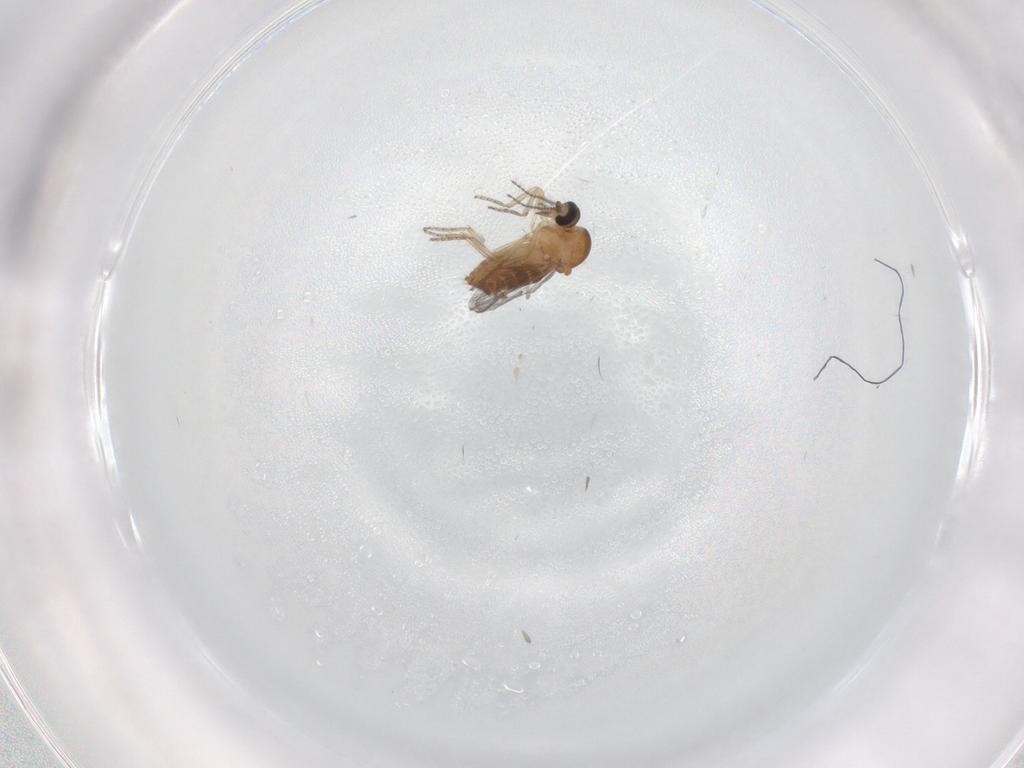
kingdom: Animalia
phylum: Arthropoda
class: Insecta
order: Diptera
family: Ceratopogonidae
